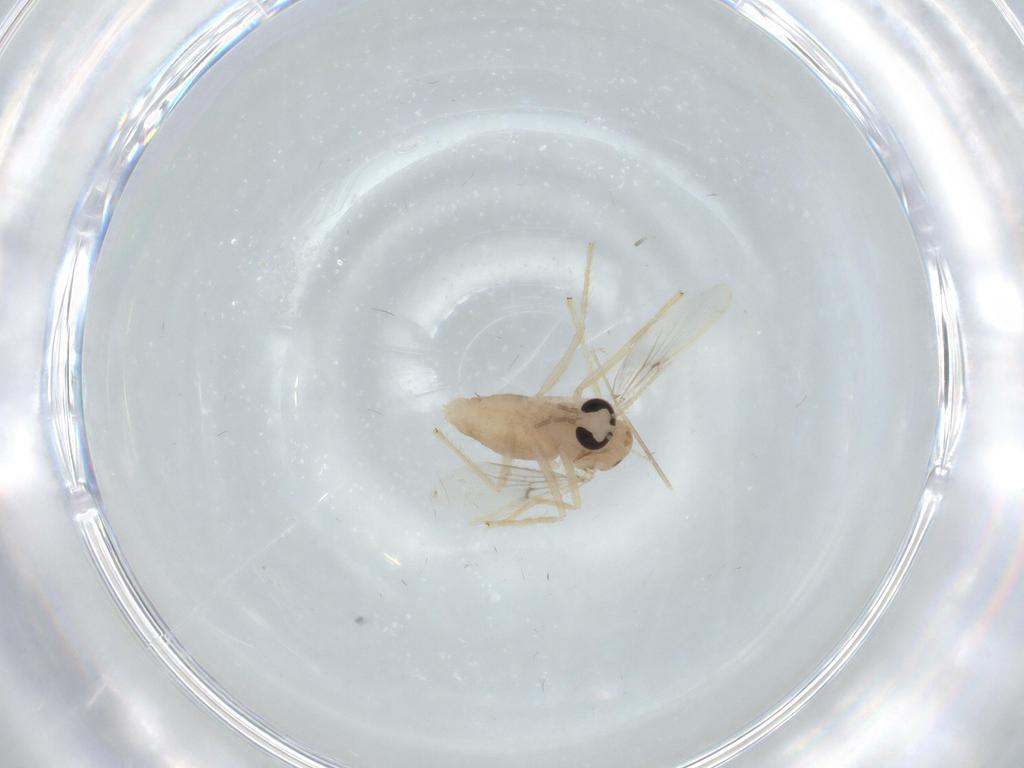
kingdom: Animalia
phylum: Arthropoda
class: Insecta
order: Diptera
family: Chironomidae
